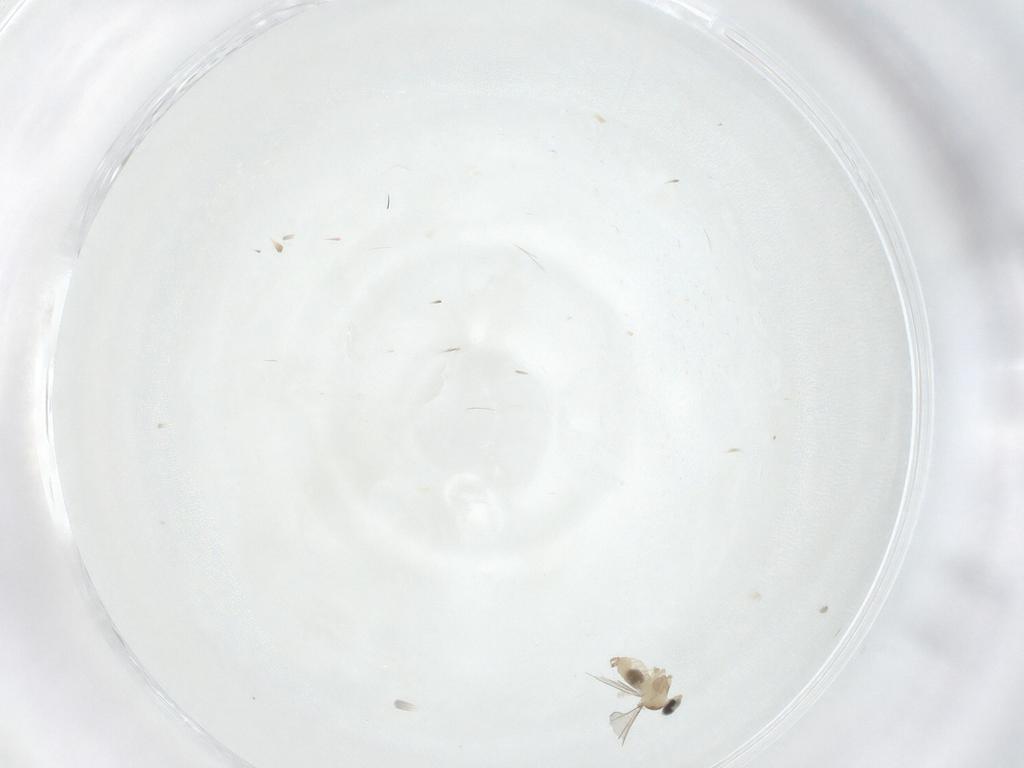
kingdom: Animalia
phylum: Arthropoda
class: Insecta
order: Diptera
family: Cecidomyiidae
